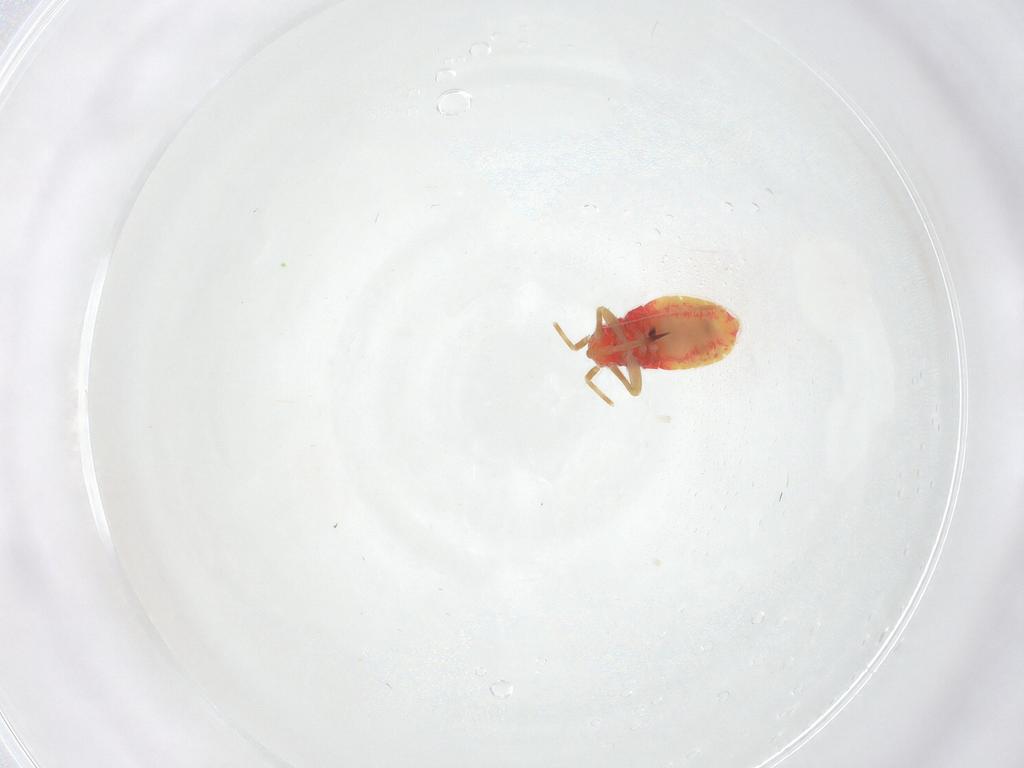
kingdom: Animalia
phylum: Arthropoda
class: Insecta
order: Hemiptera
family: Miridae
